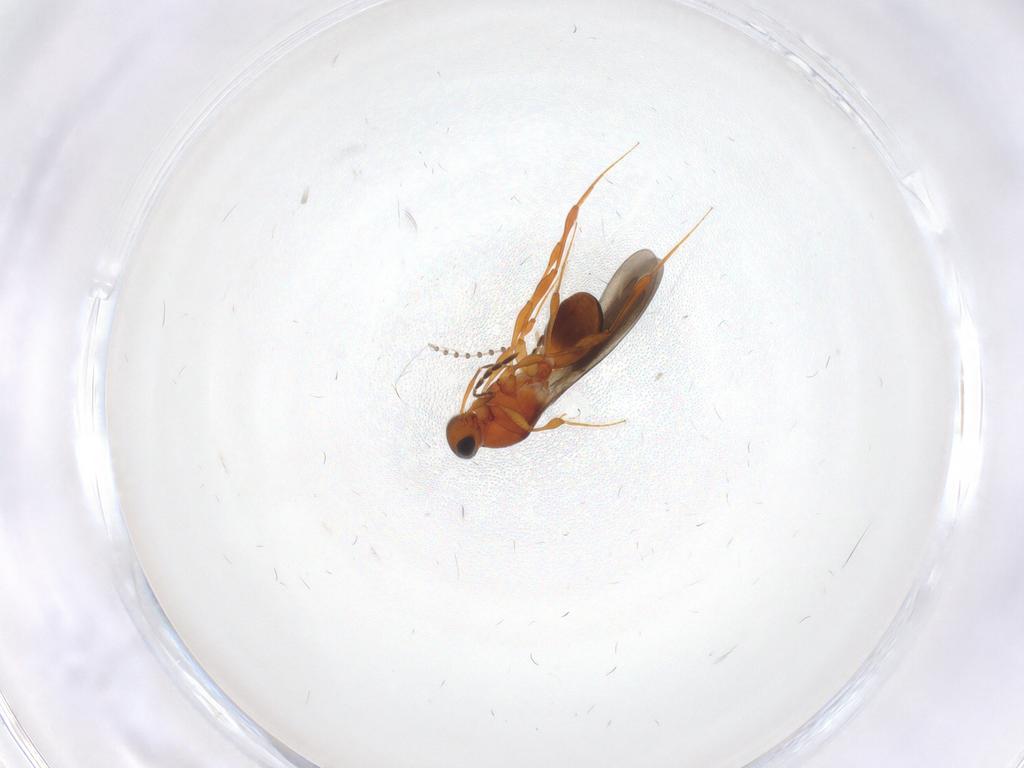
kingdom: Animalia
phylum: Arthropoda
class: Insecta
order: Hymenoptera
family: Platygastridae
